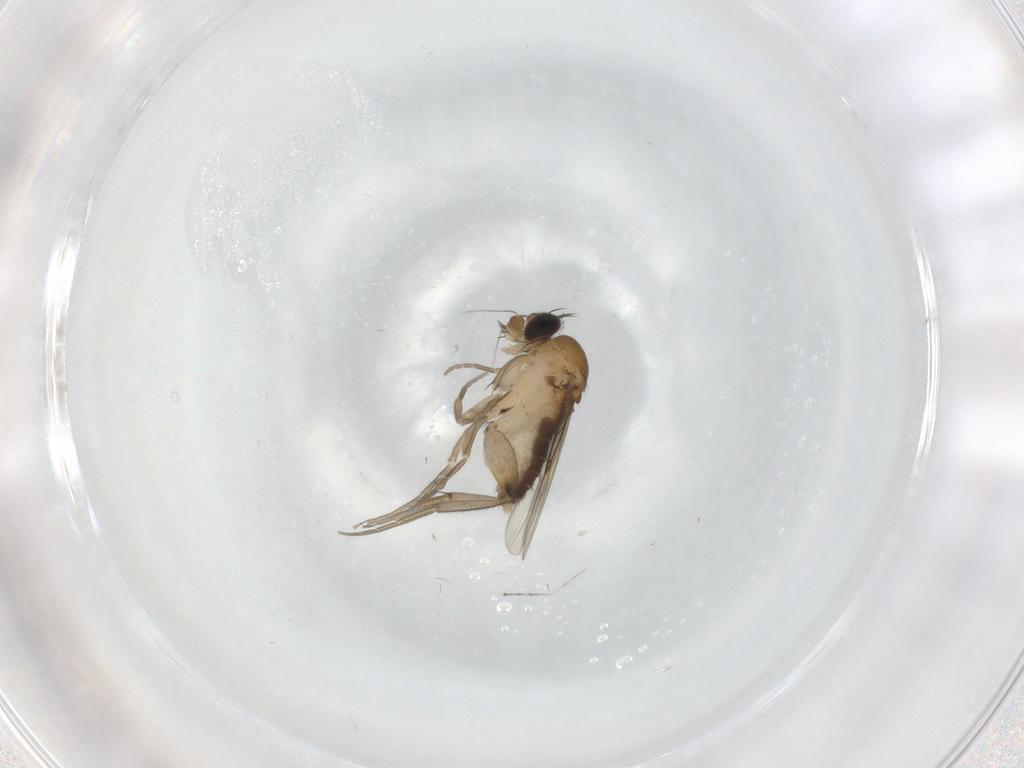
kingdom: Animalia
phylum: Arthropoda
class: Insecta
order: Diptera
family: Phoridae
